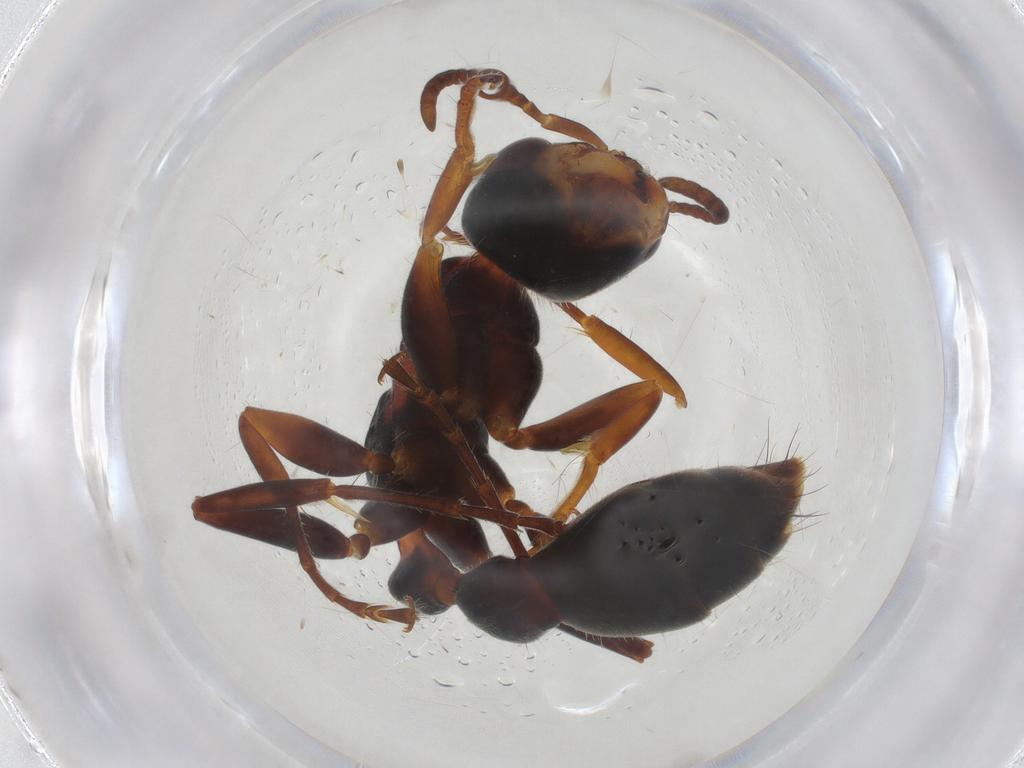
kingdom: Animalia
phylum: Arthropoda
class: Insecta
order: Hymenoptera
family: Formicidae
